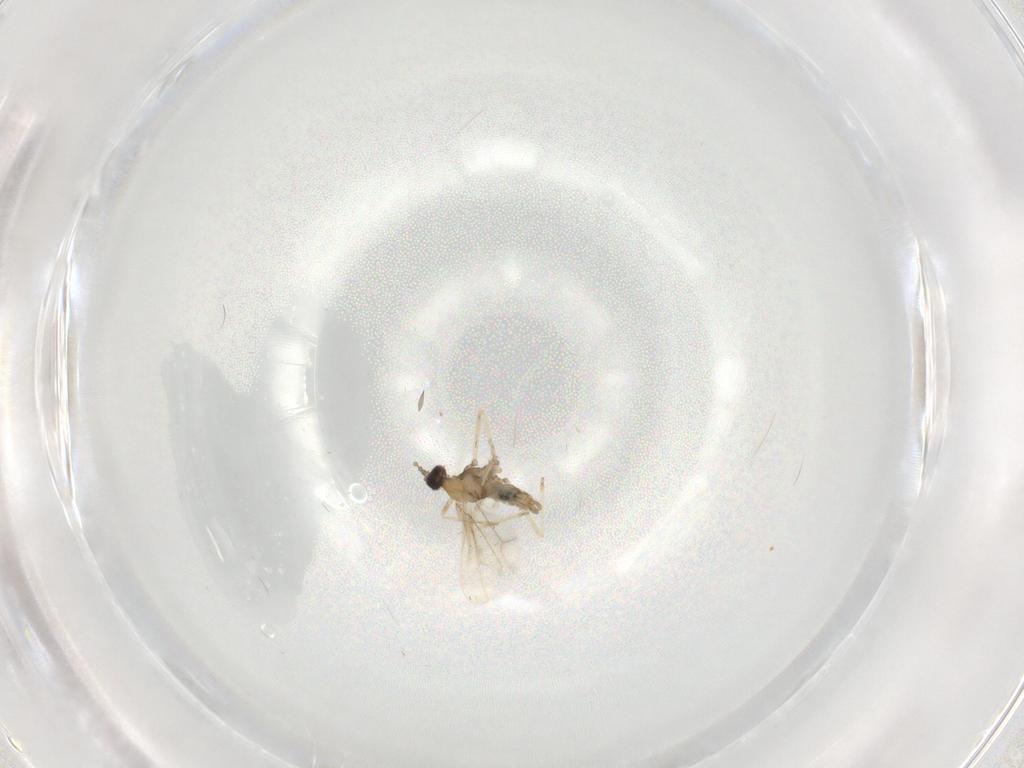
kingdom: Animalia
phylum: Arthropoda
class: Insecta
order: Diptera
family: Cecidomyiidae
